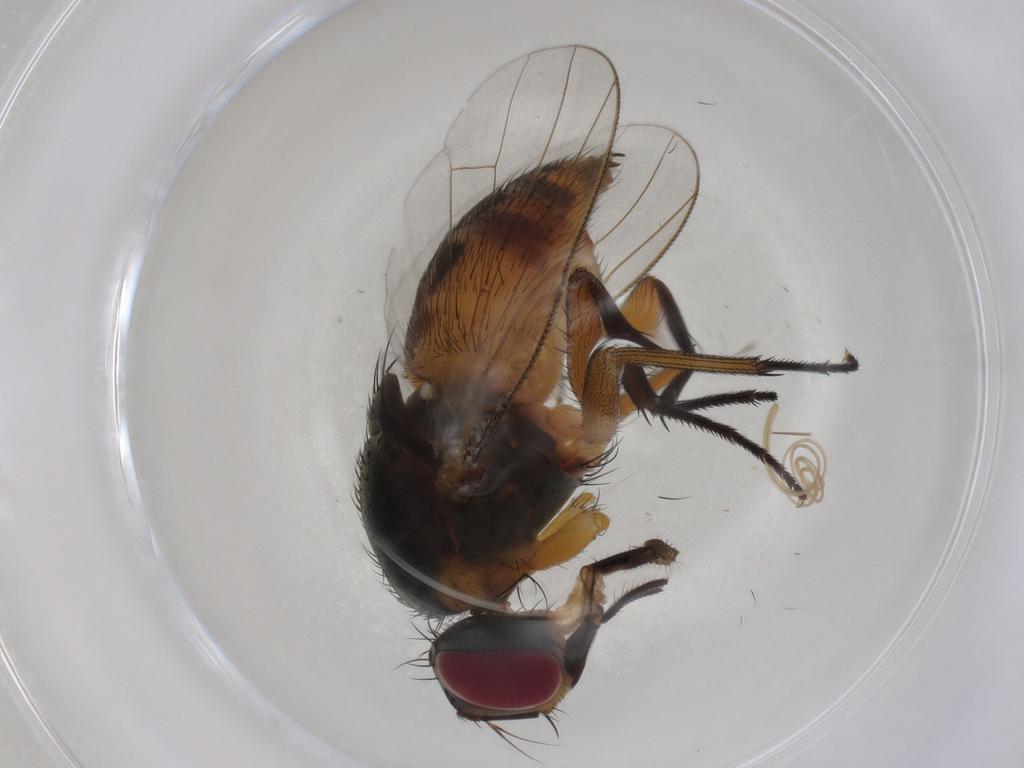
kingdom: Animalia
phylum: Arthropoda
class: Insecta
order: Diptera
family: Muscidae
